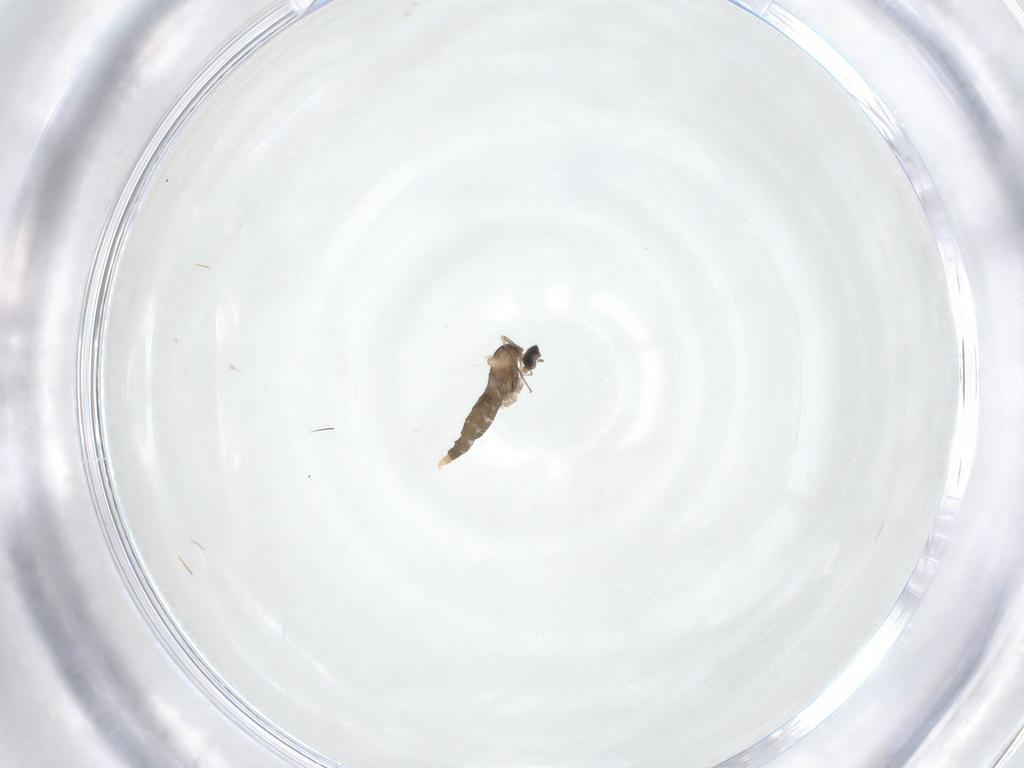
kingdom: Animalia
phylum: Arthropoda
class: Insecta
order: Diptera
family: Cecidomyiidae
